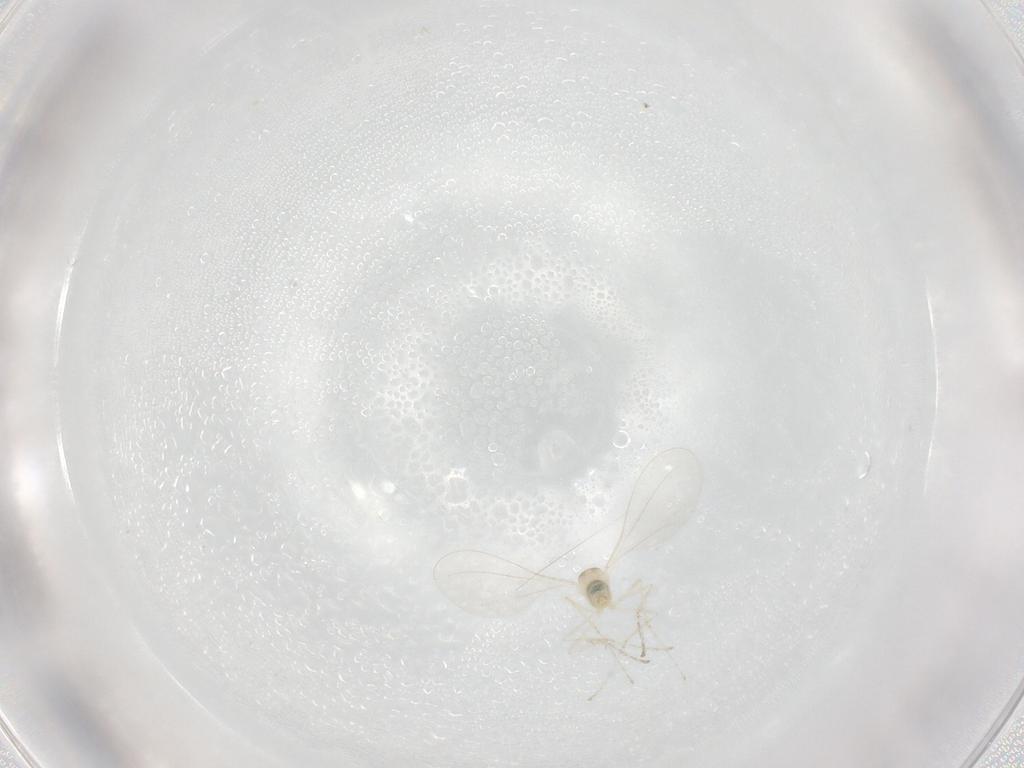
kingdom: Animalia
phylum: Arthropoda
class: Insecta
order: Diptera
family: Cecidomyiidae
